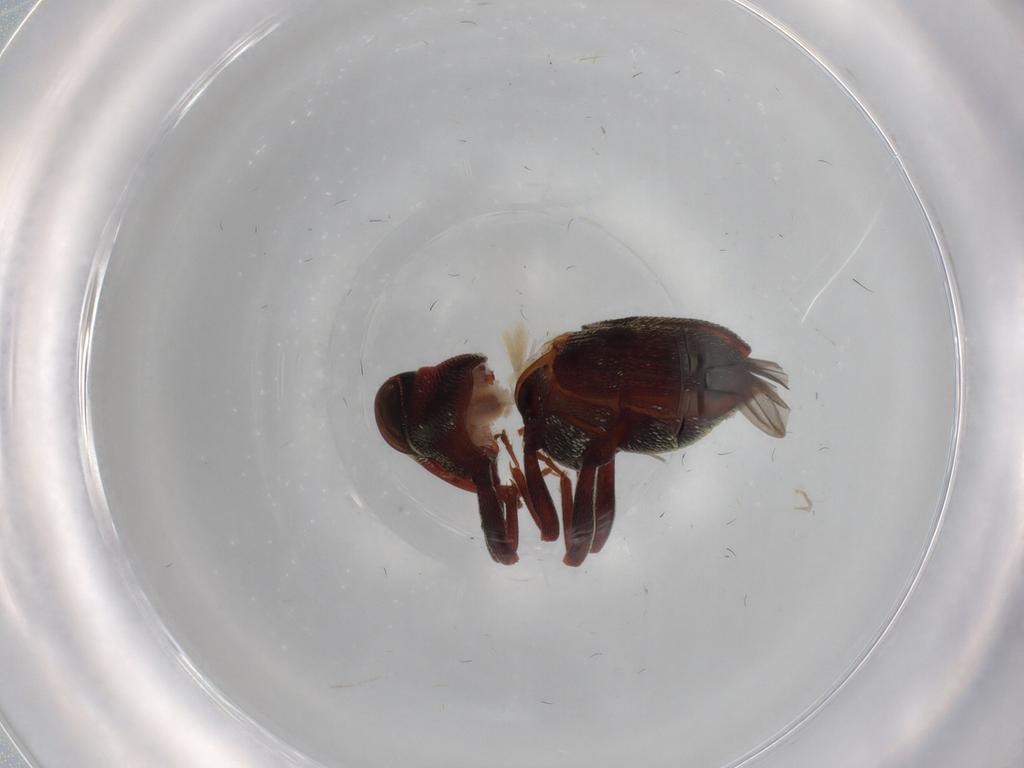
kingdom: Animalia
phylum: Arthropoda
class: Insecta
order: Coleoptera
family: Curculionidae
